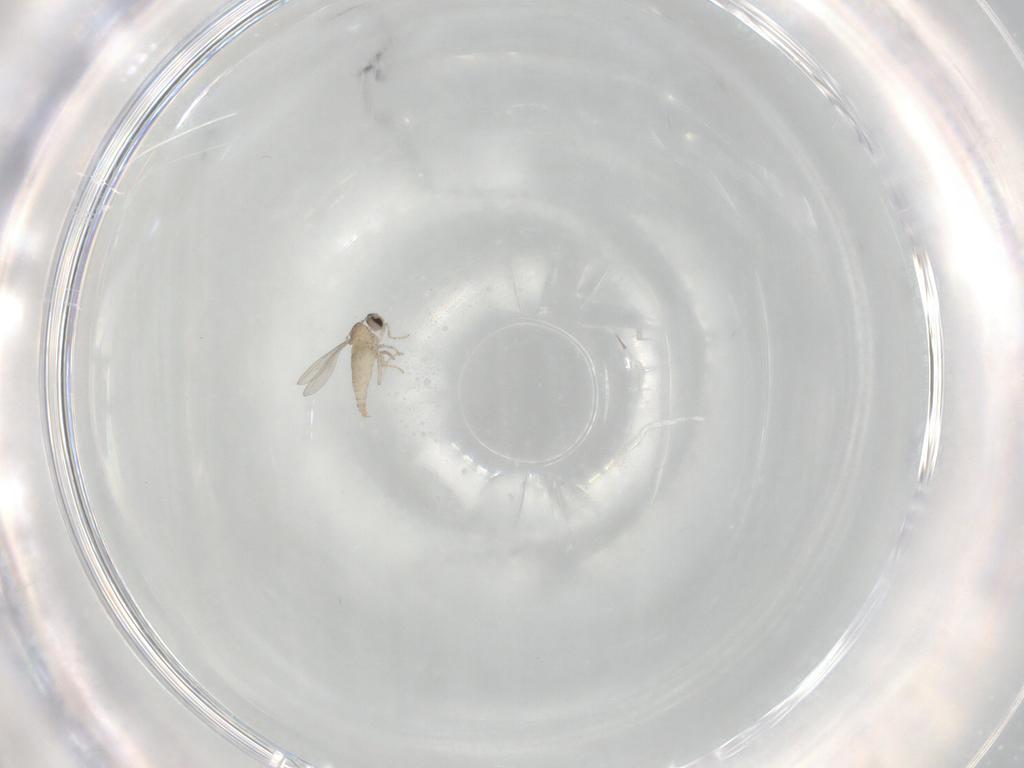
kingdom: Animalia
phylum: Arthropoda
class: Insecta
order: Diptera
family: Cecidomyiidae
